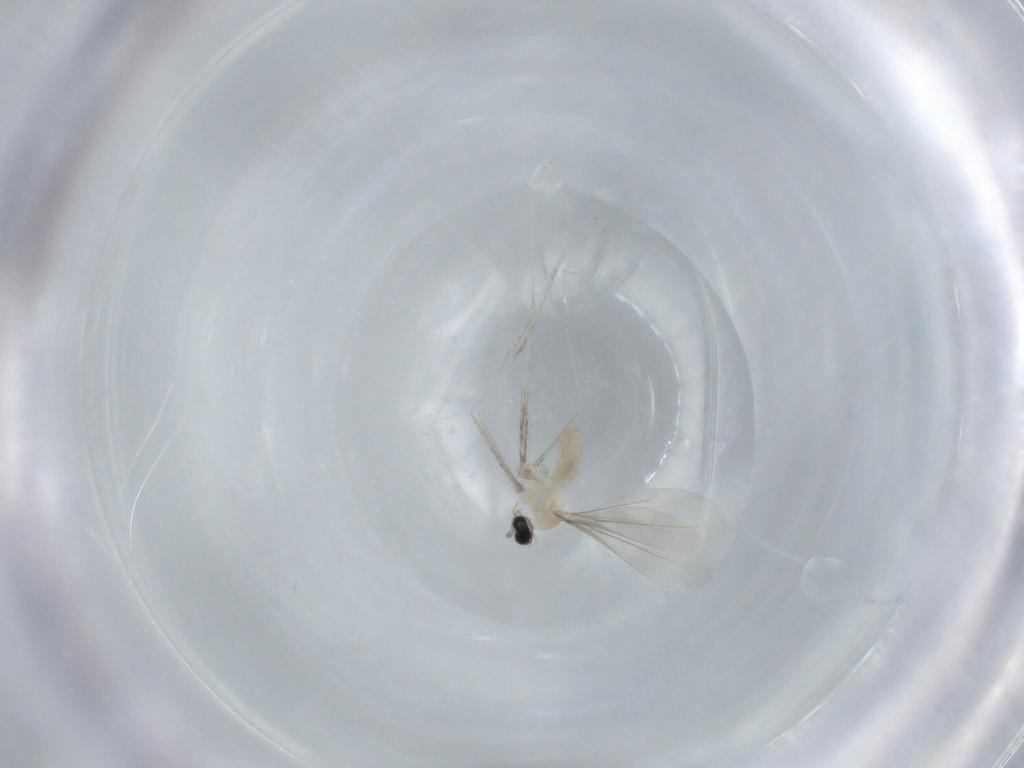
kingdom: Animalia
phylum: Arthropoda
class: Insecta
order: Diptera
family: Cecidomyiidae
